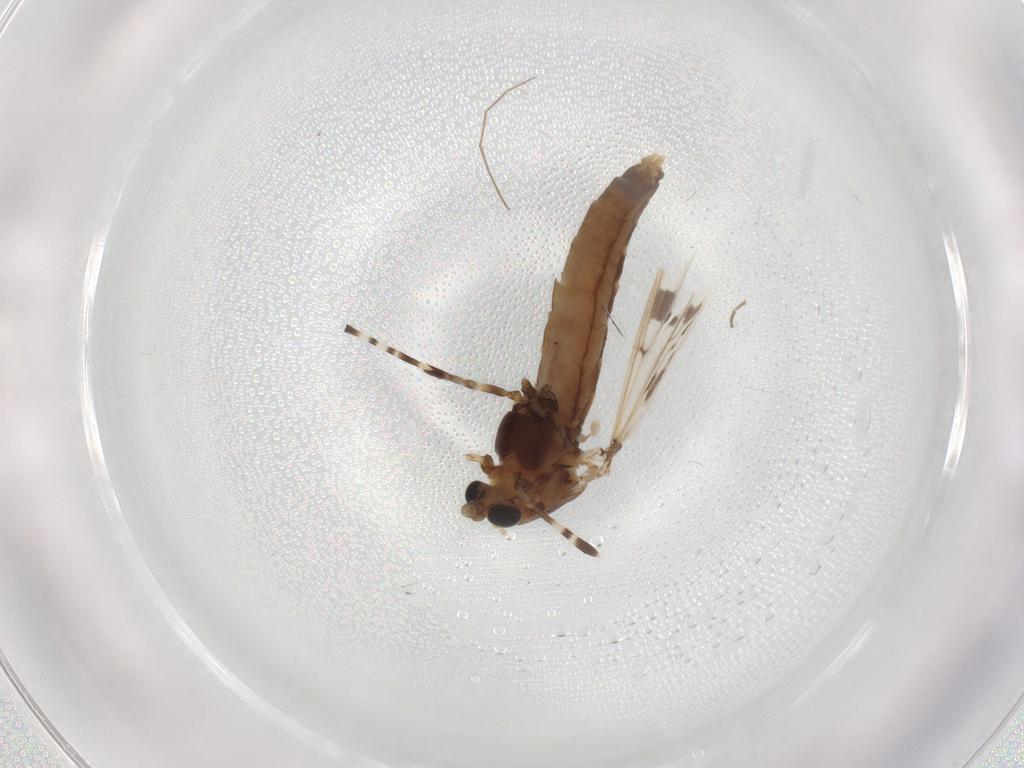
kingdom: Animalia
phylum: Arthropoda
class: Insecta
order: Diptera
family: Chironomidae
